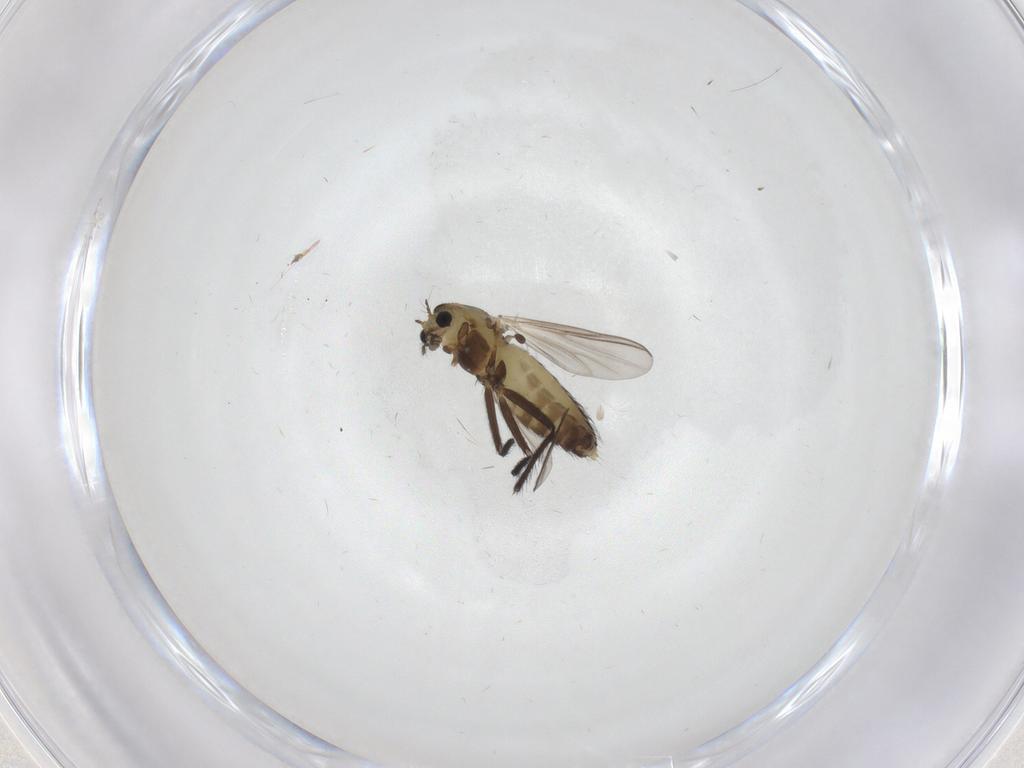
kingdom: Animalia
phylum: Arthropoda
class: Insecta
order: Diptera
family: Chironomidae
